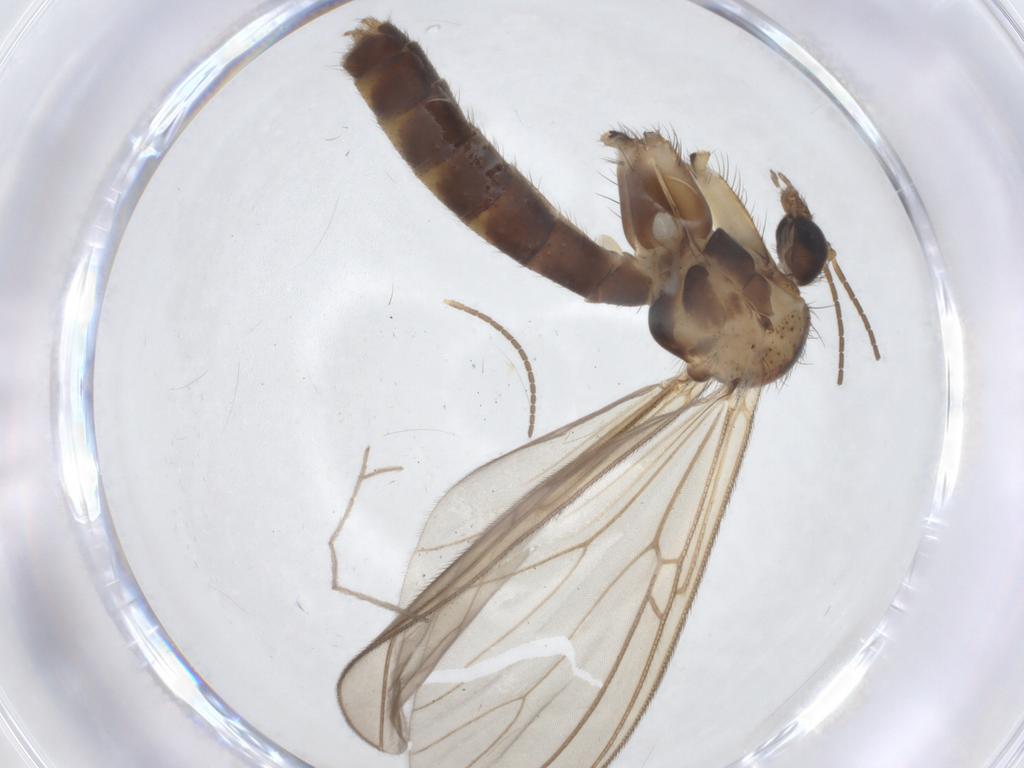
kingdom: Animalia
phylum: Arthropoda
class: Insecta
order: Diptera
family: Mycetophilidae
